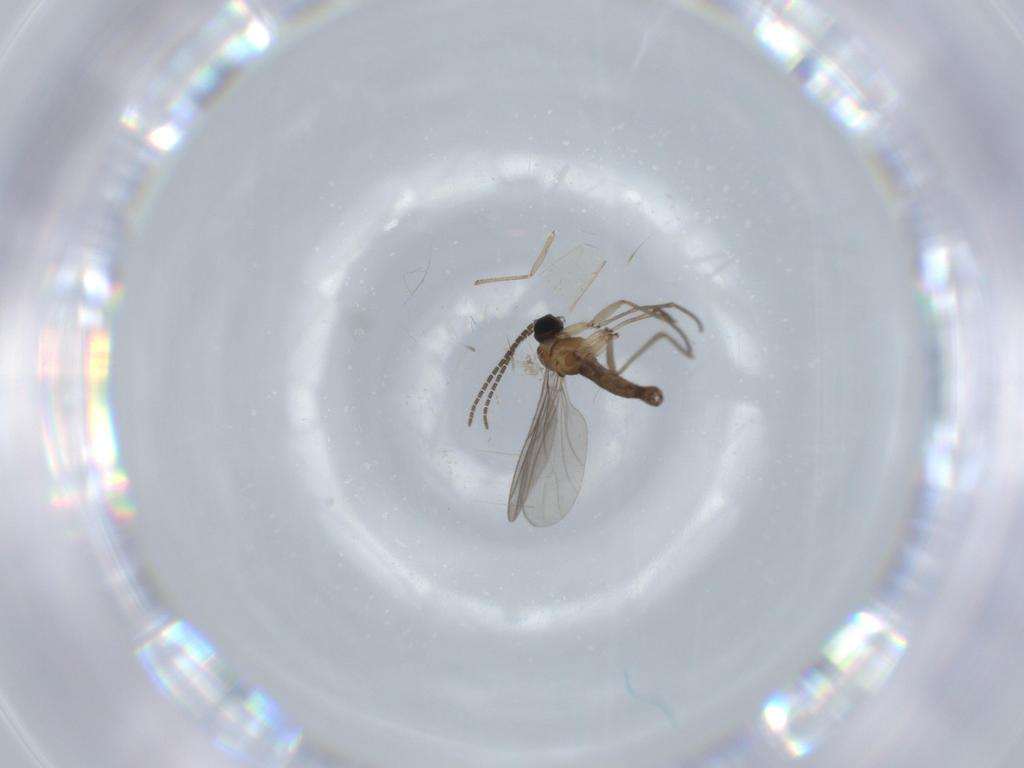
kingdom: Animalia
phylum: Arthropoda
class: Insecta
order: Diptera
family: Sciaridae
